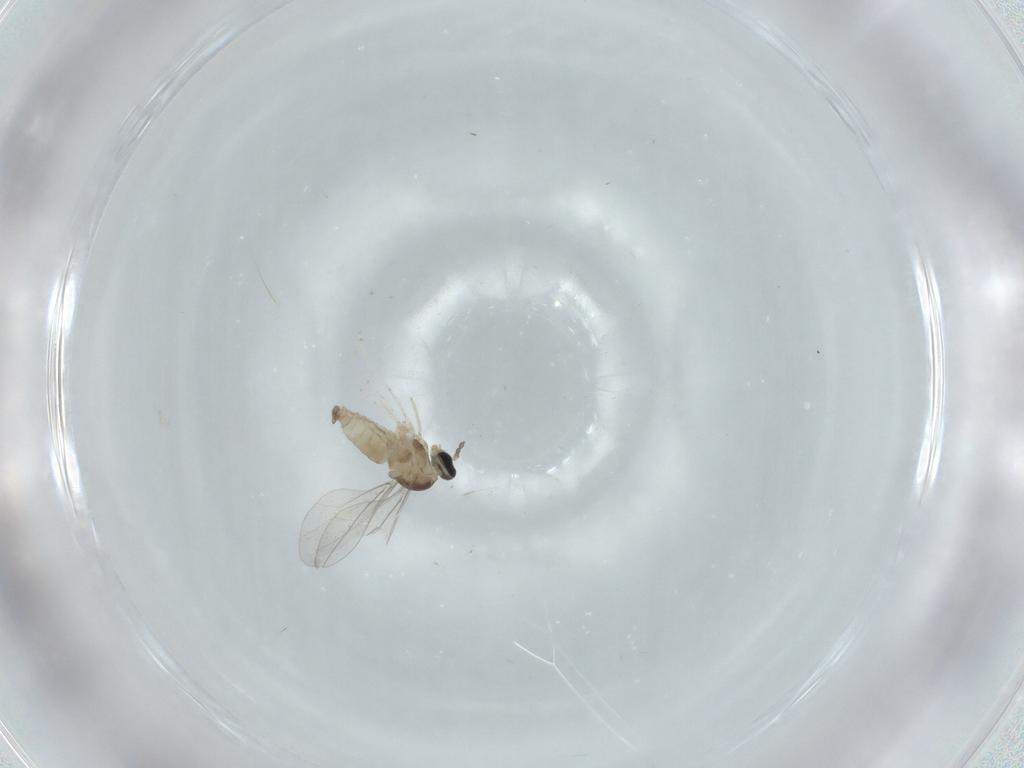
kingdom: Animalia
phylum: Arthropoda
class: Insecta
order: Diptera
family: Cecidomyiidae
